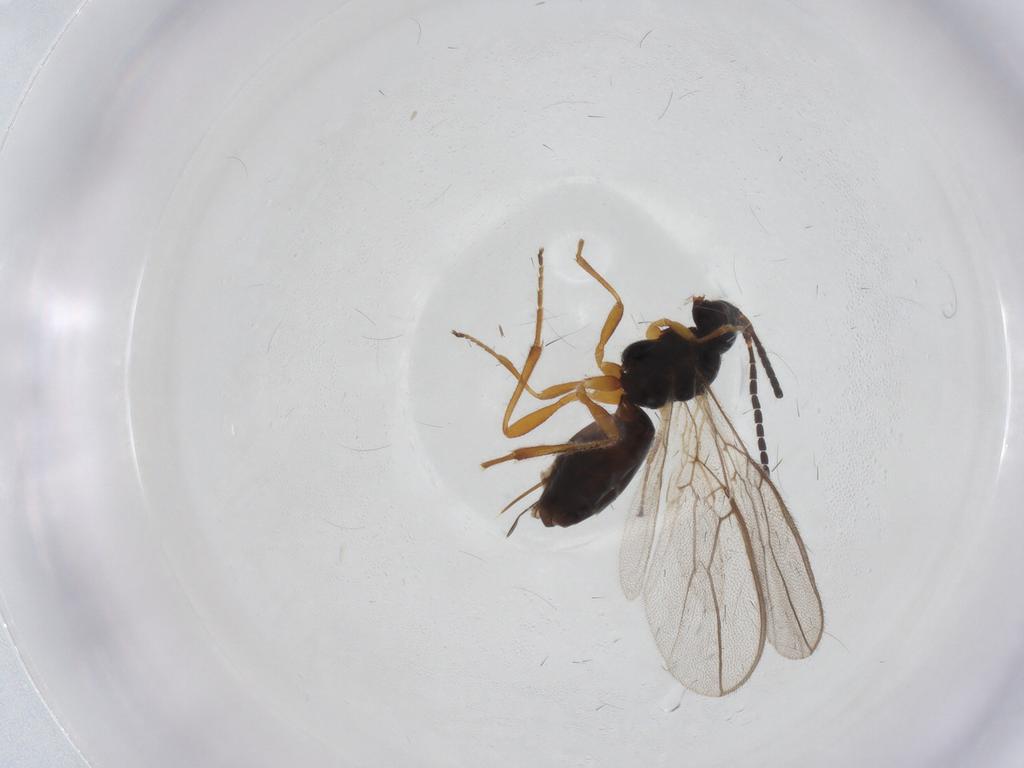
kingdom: Animalia
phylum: Arthropoda
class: Insecta
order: Hymenoptera
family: Braconidae
